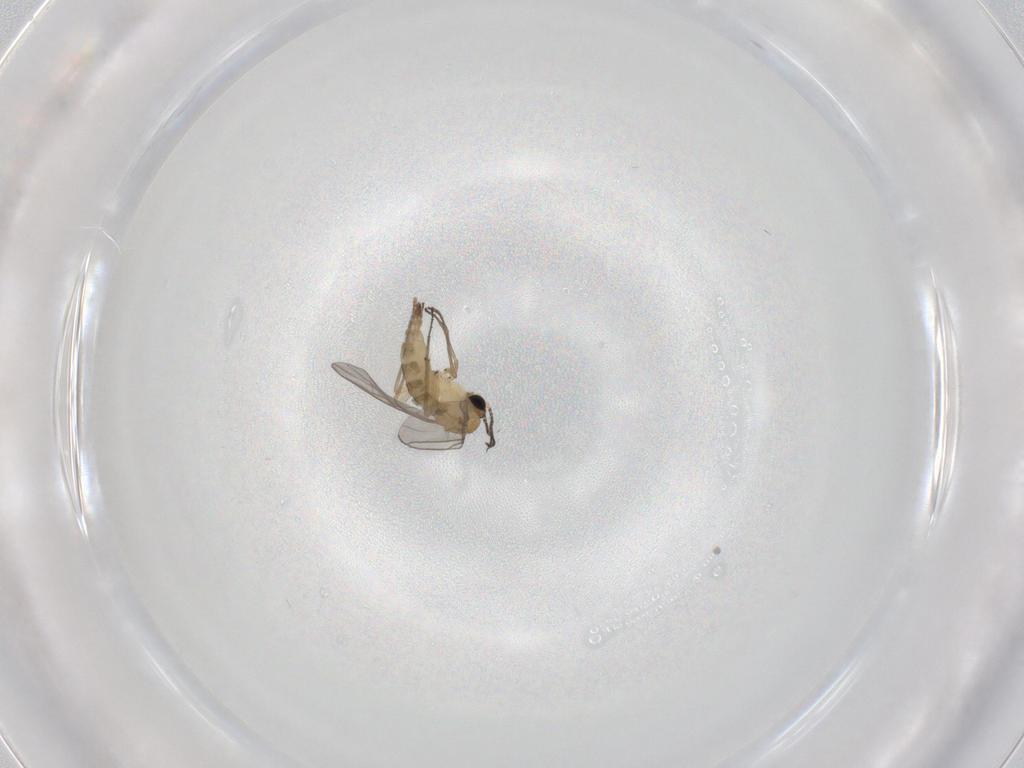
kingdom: Animalia
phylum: Arthropoda
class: Insecta
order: Diptera
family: Sciaridae
